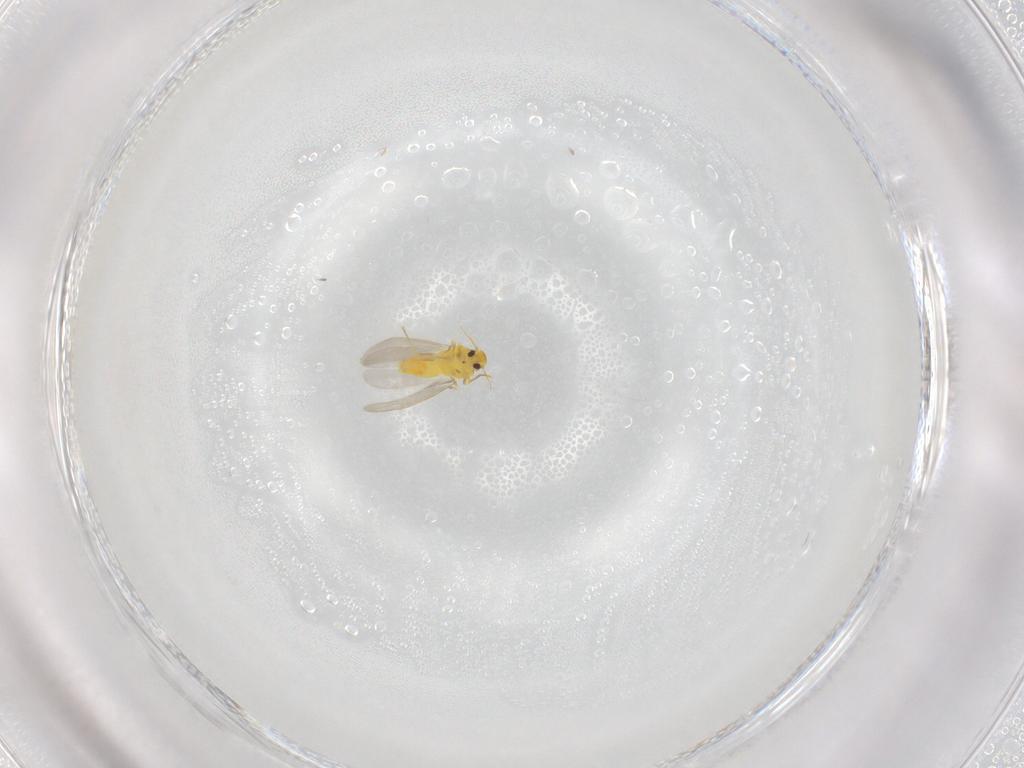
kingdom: Animalia
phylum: Arthropoda
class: Insecta
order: Hemiptera
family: Aleyrodidae
